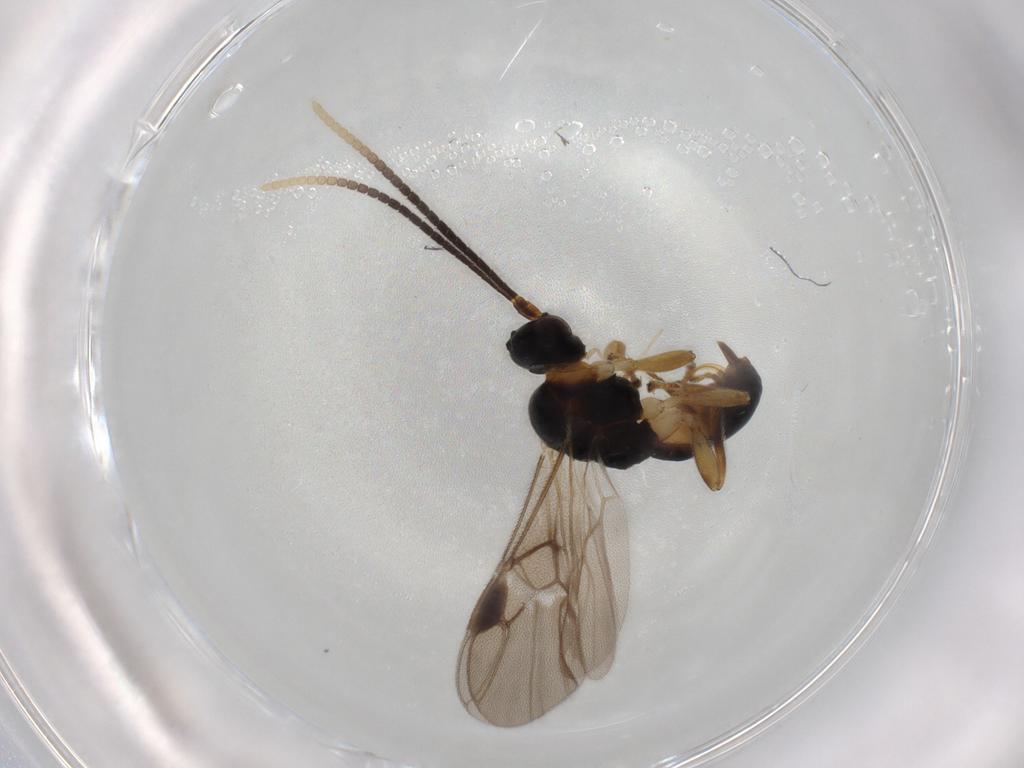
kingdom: Animalia
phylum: Arthropoda
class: Insecta
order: Hymenoptera
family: Braconidae
